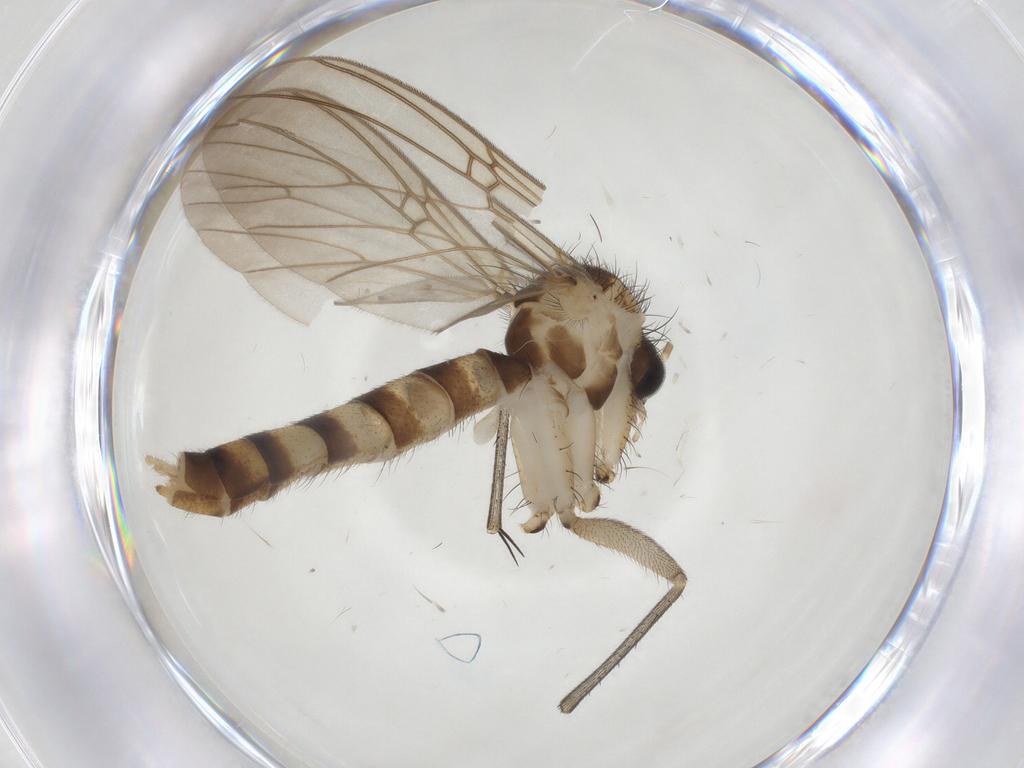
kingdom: Animalia
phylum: Arthropoda
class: Insecta
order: Diptera
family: Mycetophilidae
